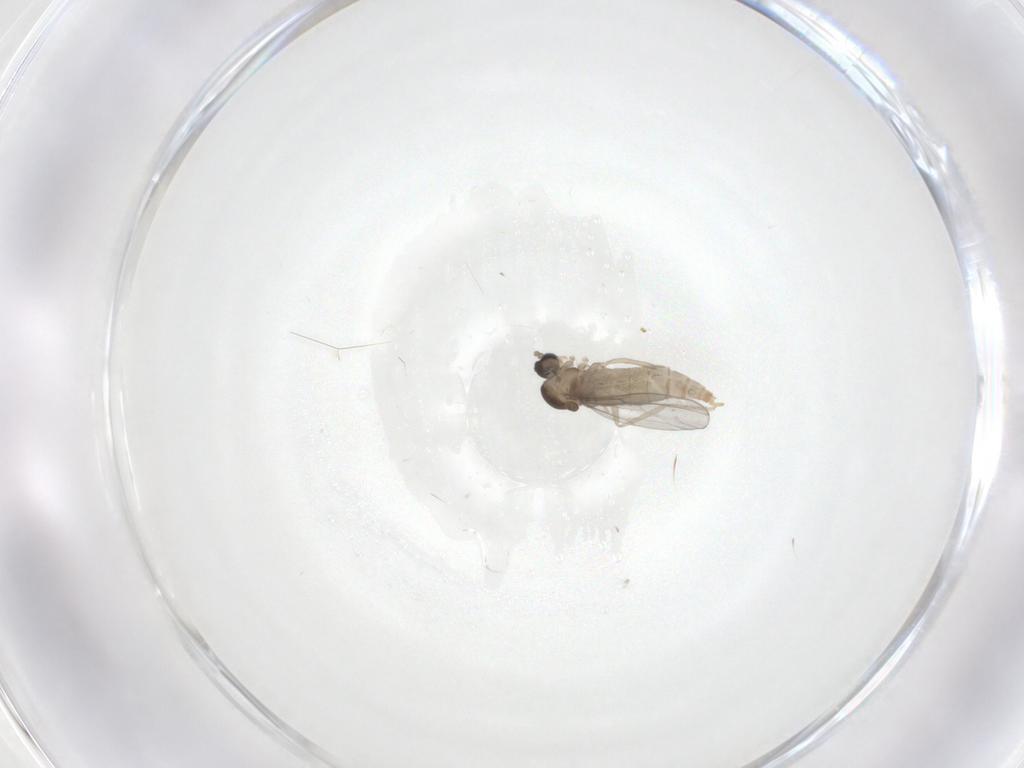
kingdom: Animalia
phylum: Arthropoda
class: Insecta
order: Diptera
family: Cecidomyiidae
